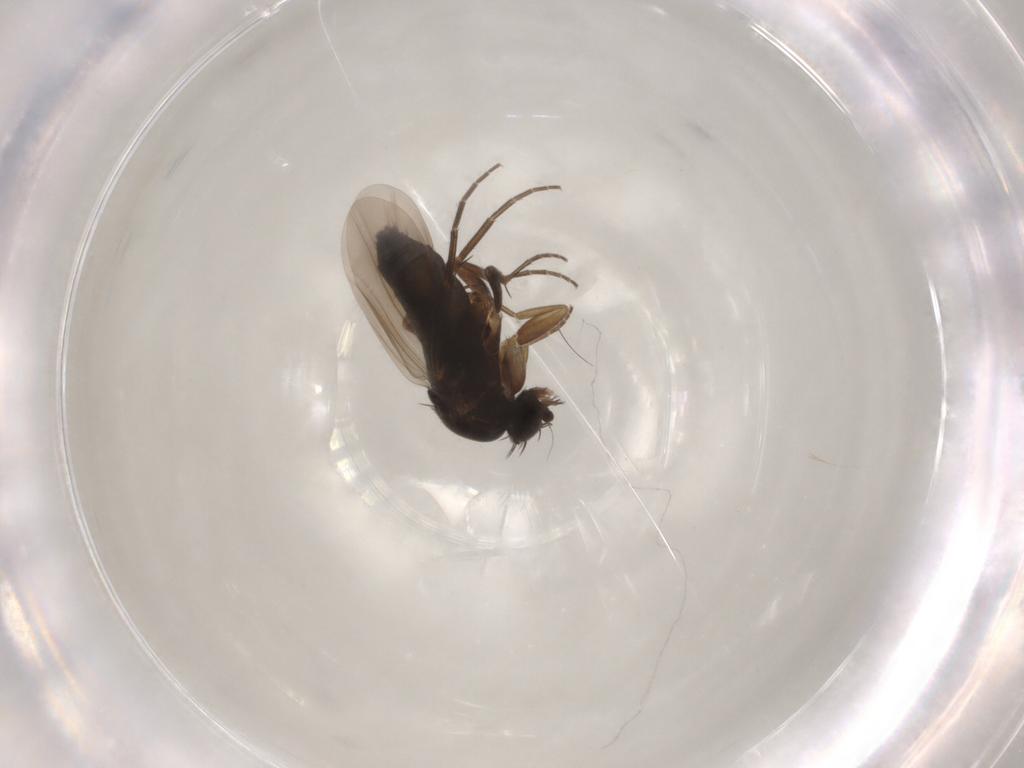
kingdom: Animalia
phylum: Arthropoda
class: Insecta
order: Diptera
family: Phoridae
